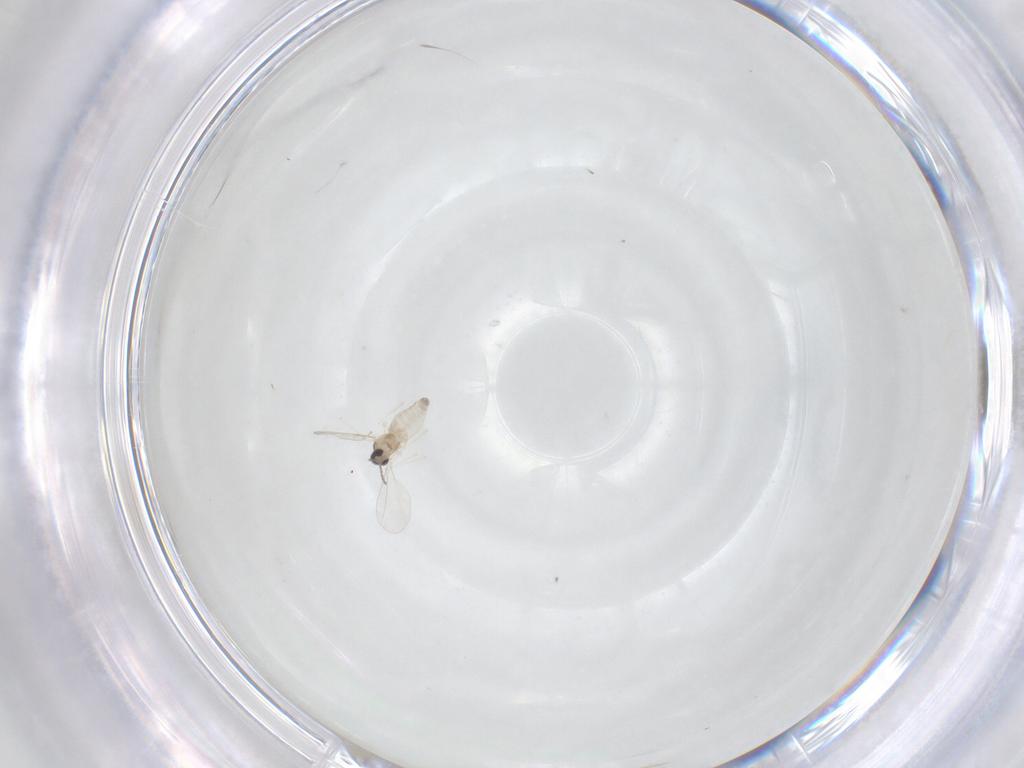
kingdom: Animalia
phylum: Arthropoda
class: Insecta
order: Diptera
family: Cecidomyiidae
